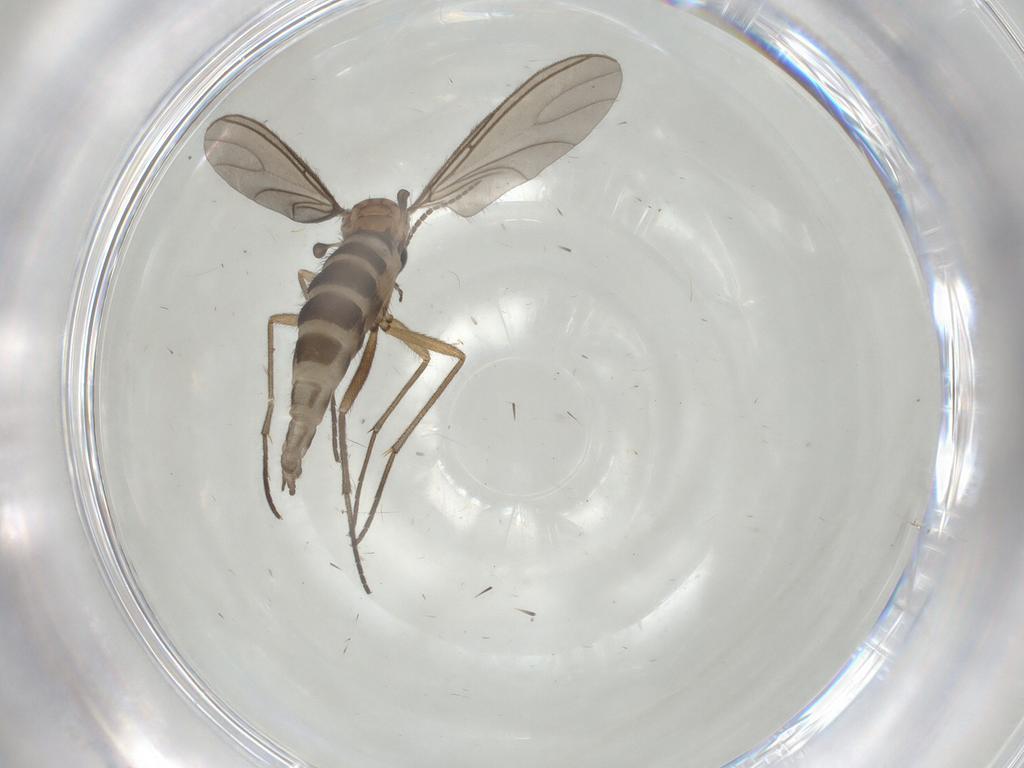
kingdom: Animalia
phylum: Arthropoda
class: Insecta
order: Diptera
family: Sciaridae
